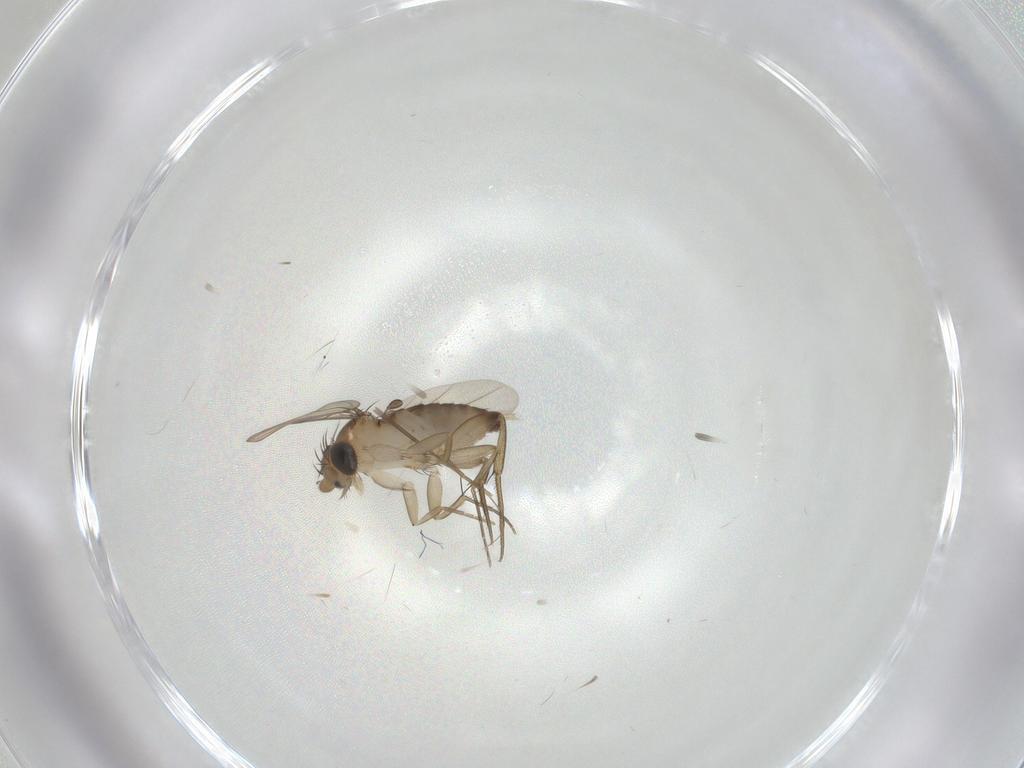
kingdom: Animalia
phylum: Arthropoda
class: Insecta
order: Diptera
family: Phoridae
